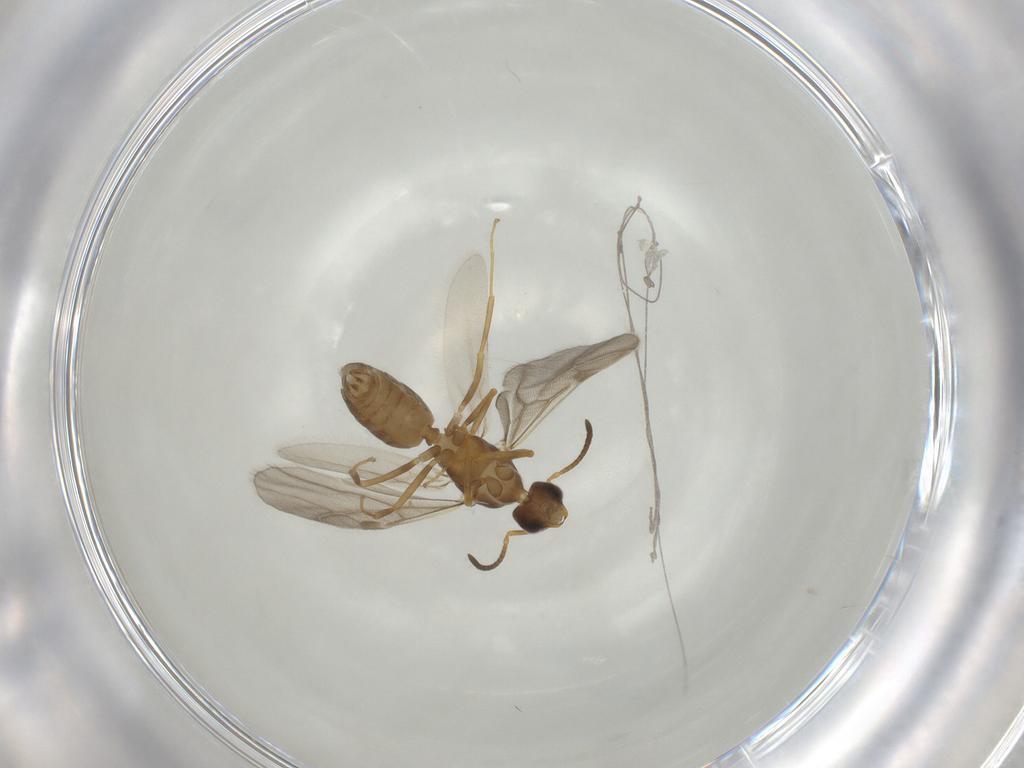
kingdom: Animalia
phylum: Arthropoda
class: Insecta
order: Hymenoptera
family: Formicidae
